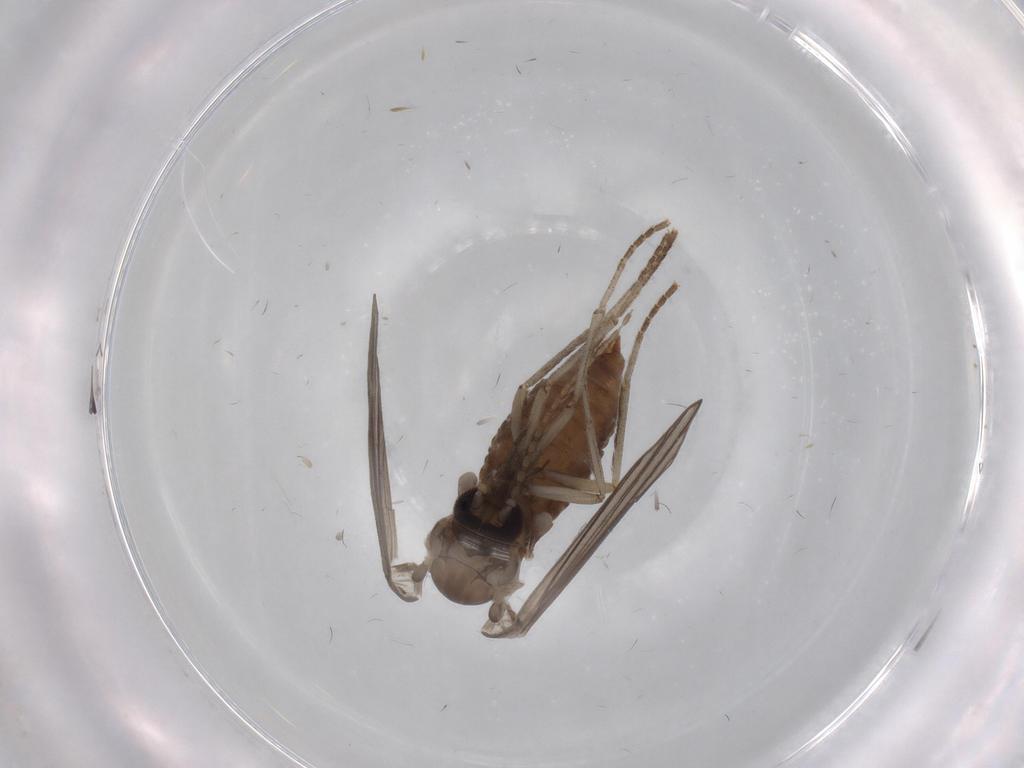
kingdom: Animalia
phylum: Arthropoda
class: Insecta
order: Diptera
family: Psychodidae
